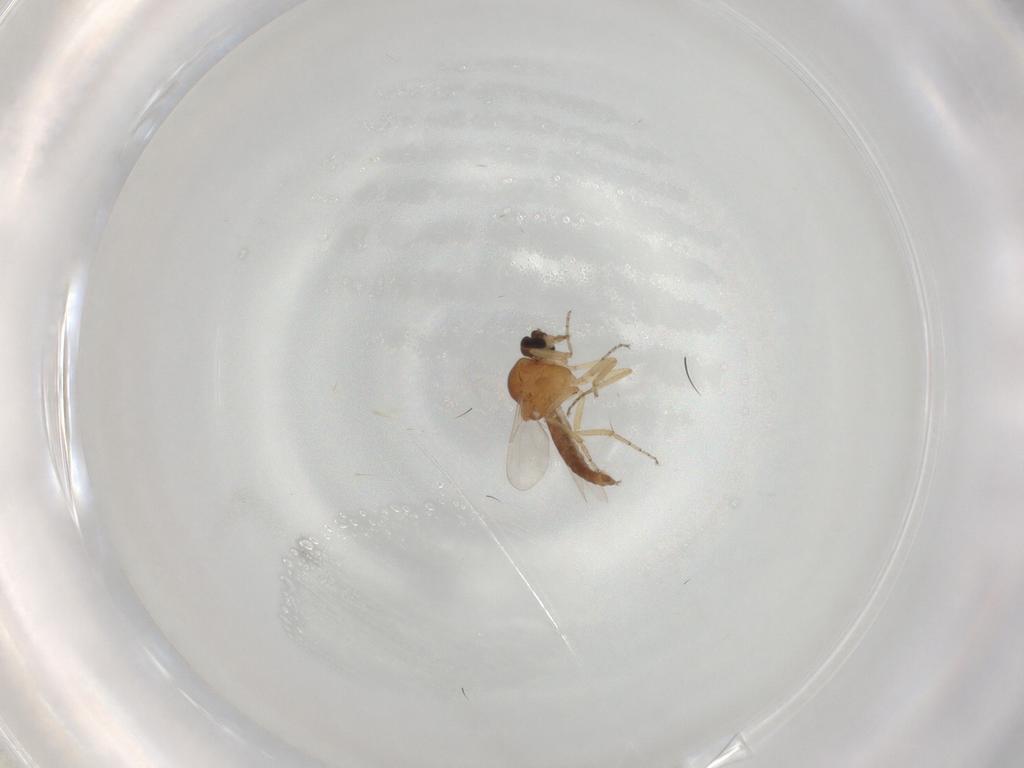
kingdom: Animalia
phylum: Arthropoda
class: Insecta
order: Diptera
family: Ceratopogonidae
